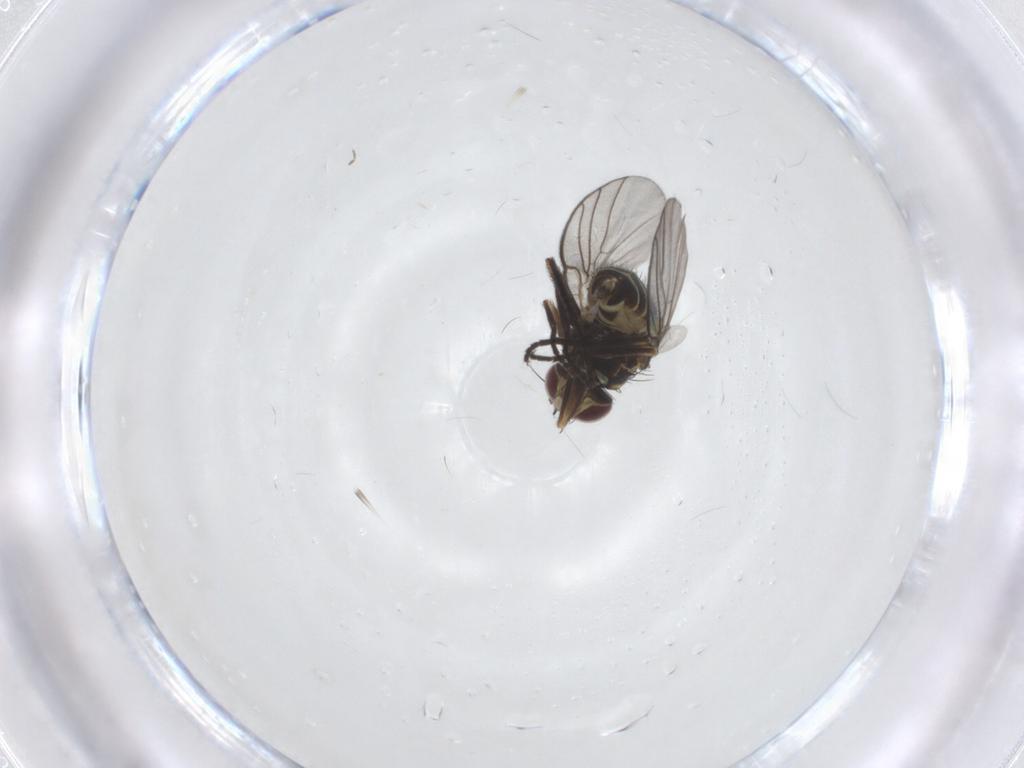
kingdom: Animalia
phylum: Arthropoda
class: Insecta
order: Diptera
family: Agromyzidae
